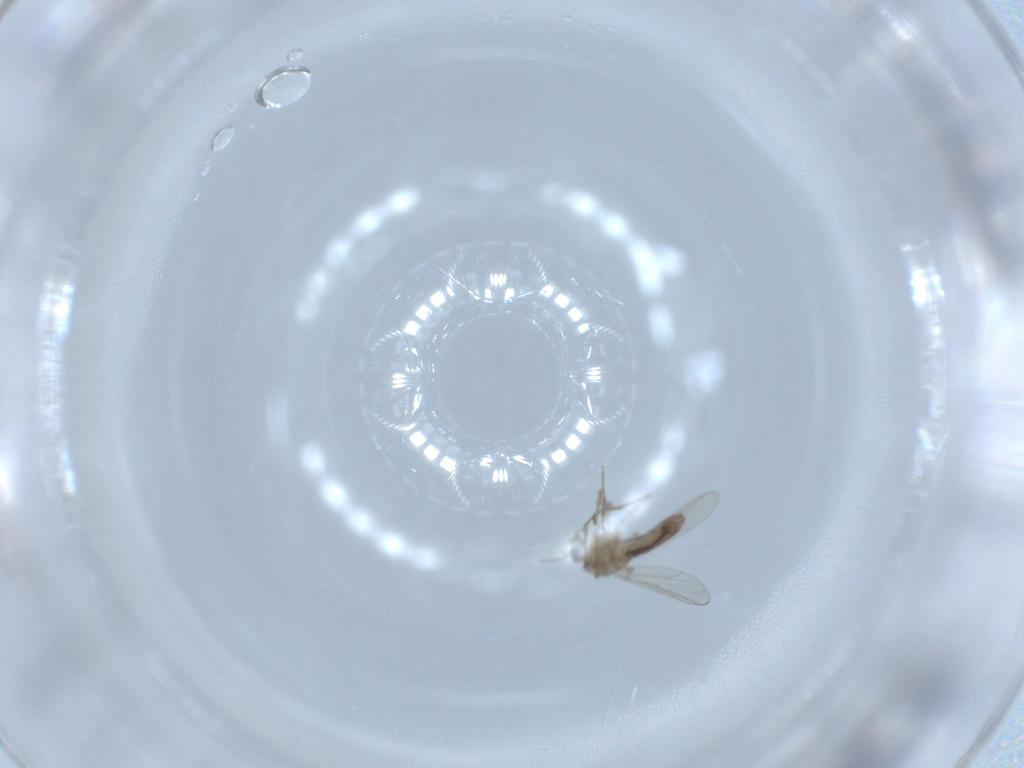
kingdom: Animalia
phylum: Arthropoda
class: Insecta
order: Diptera
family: Chironomidae
